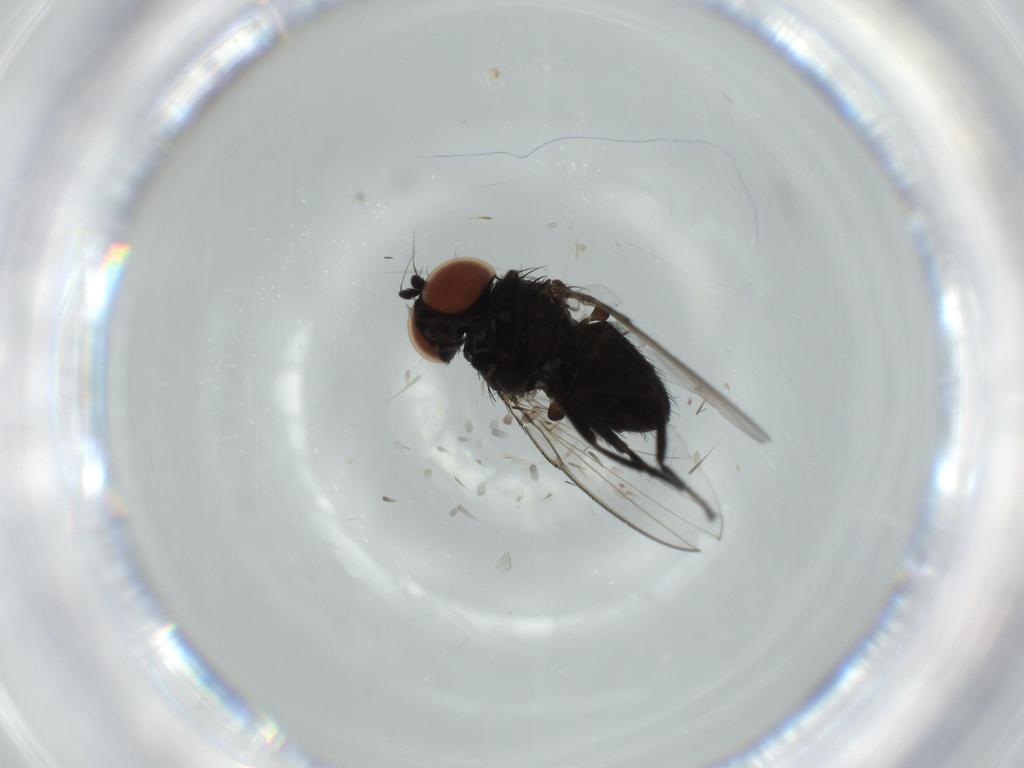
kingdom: Animalia
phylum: Arthropoda
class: Insecta
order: Diptera
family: Milichiidae
